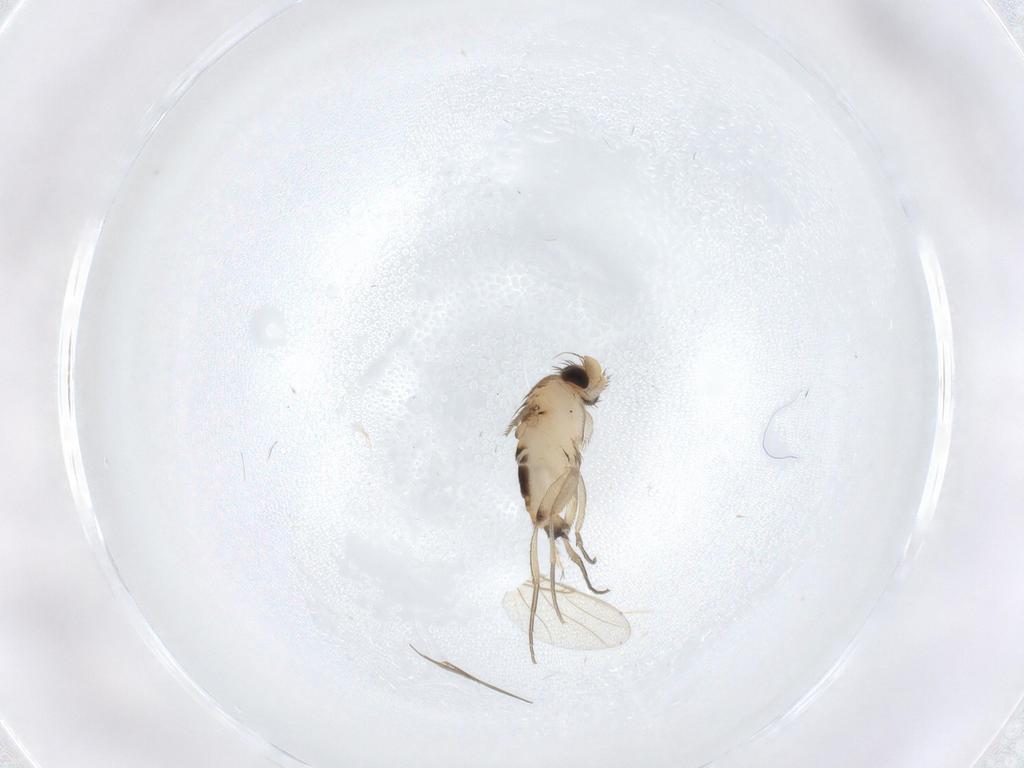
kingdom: Animalia
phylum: Arthropoda
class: Insecta
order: Diptera
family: Phoridae
